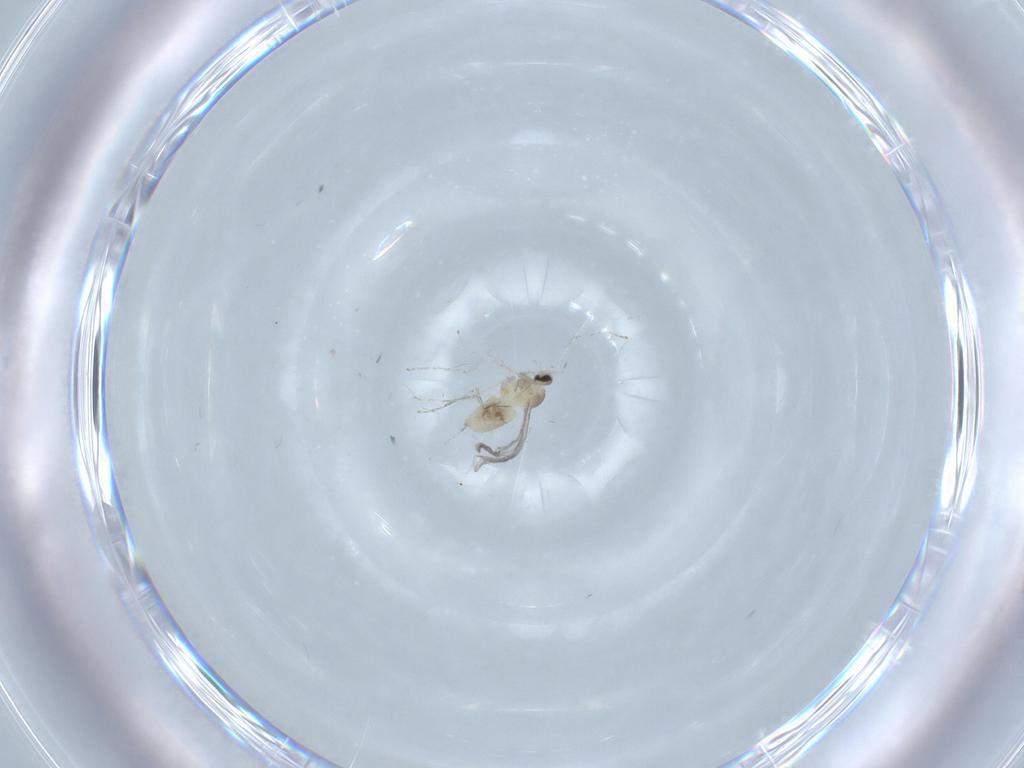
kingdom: Animalia
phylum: Arthropoda
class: Insecta
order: Diptera
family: Cecidomyiidae
